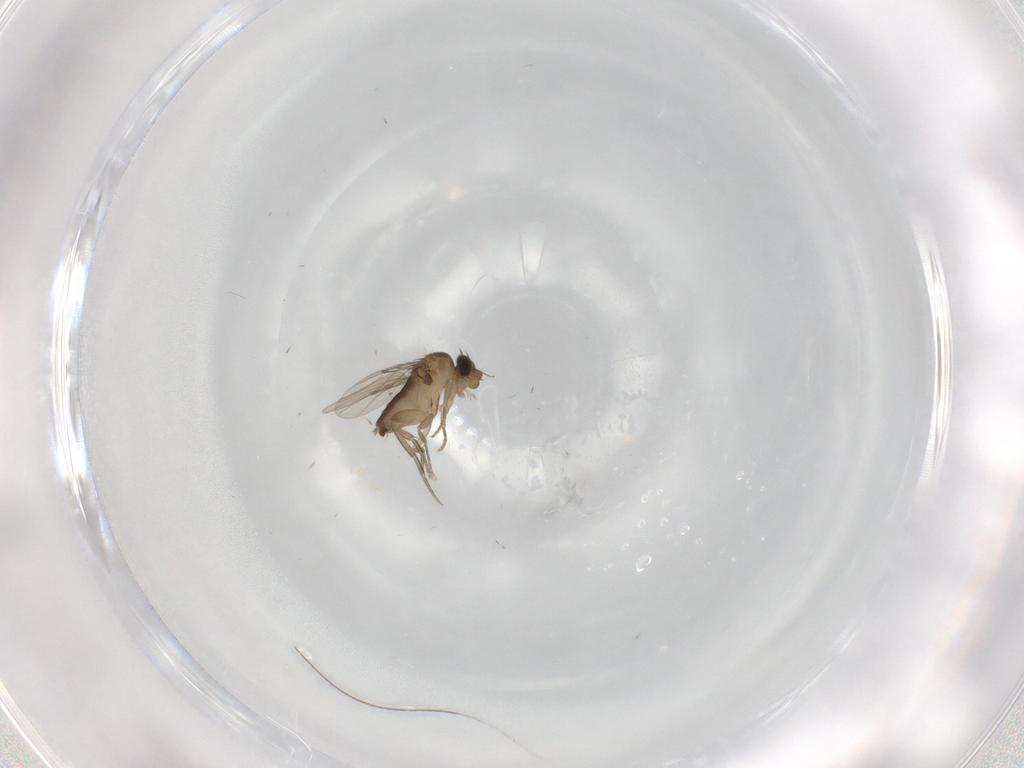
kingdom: Animalia
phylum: Arthropoda
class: Insecta
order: Diptera
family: Phoridae
